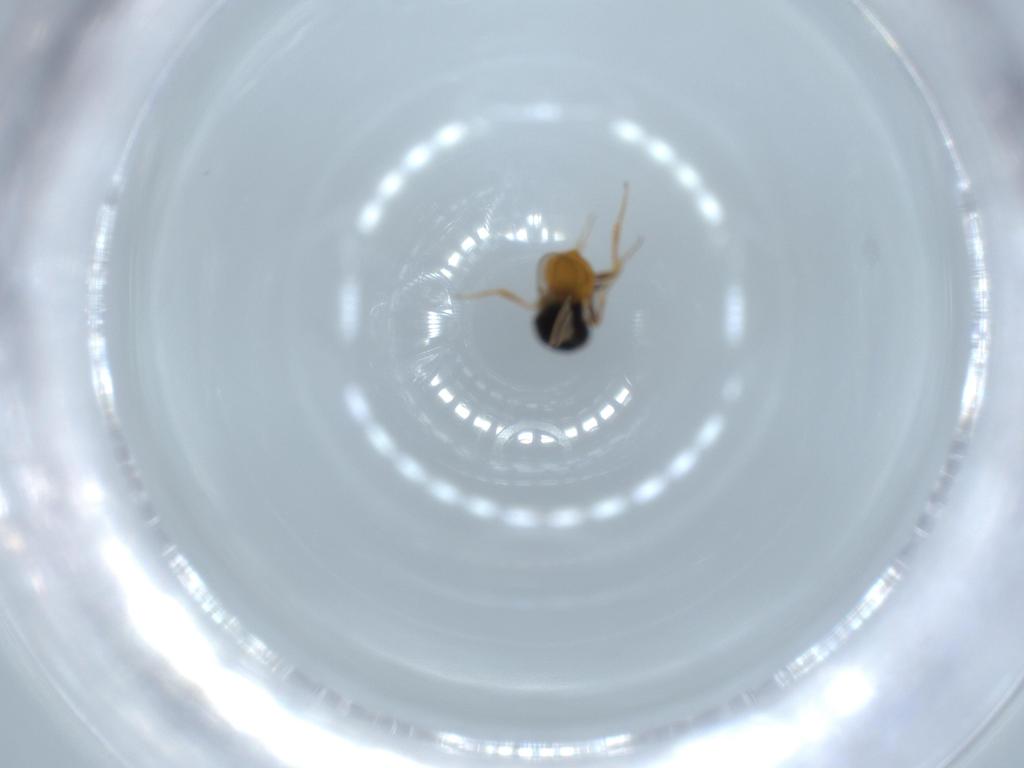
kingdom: Animalia
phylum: Arthropoda
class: Insecta
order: Hymenoptera
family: Scelionidae
